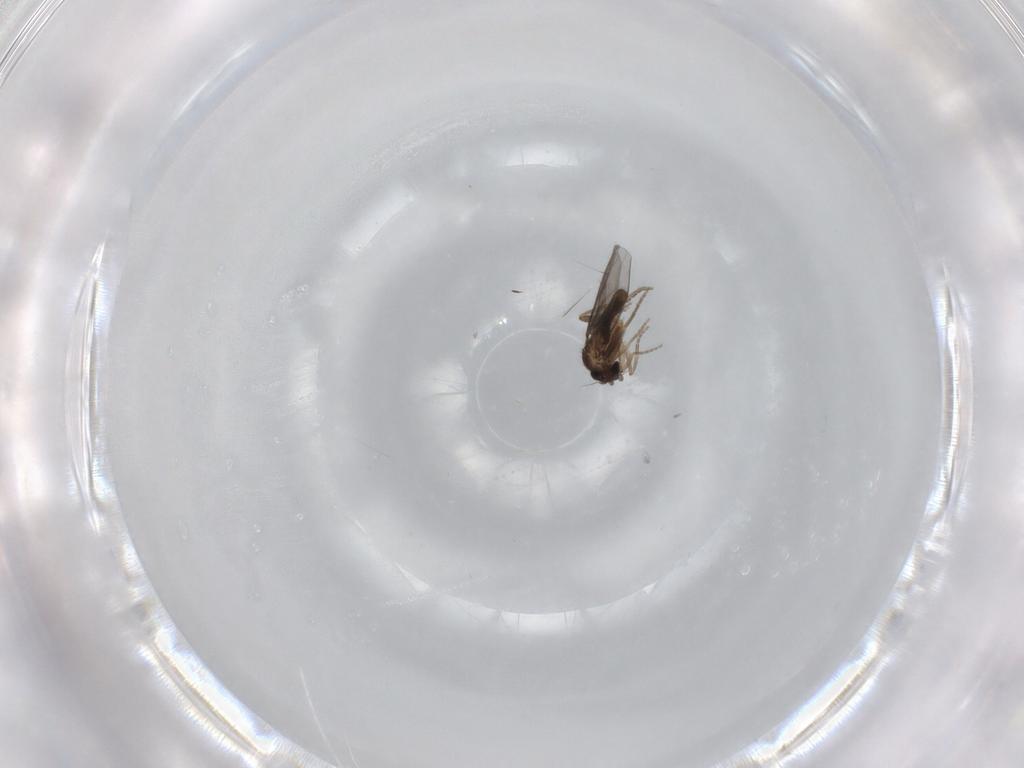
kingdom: Animalia
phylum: Arthropoda
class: Insecta
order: Diptera
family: Phoridae
